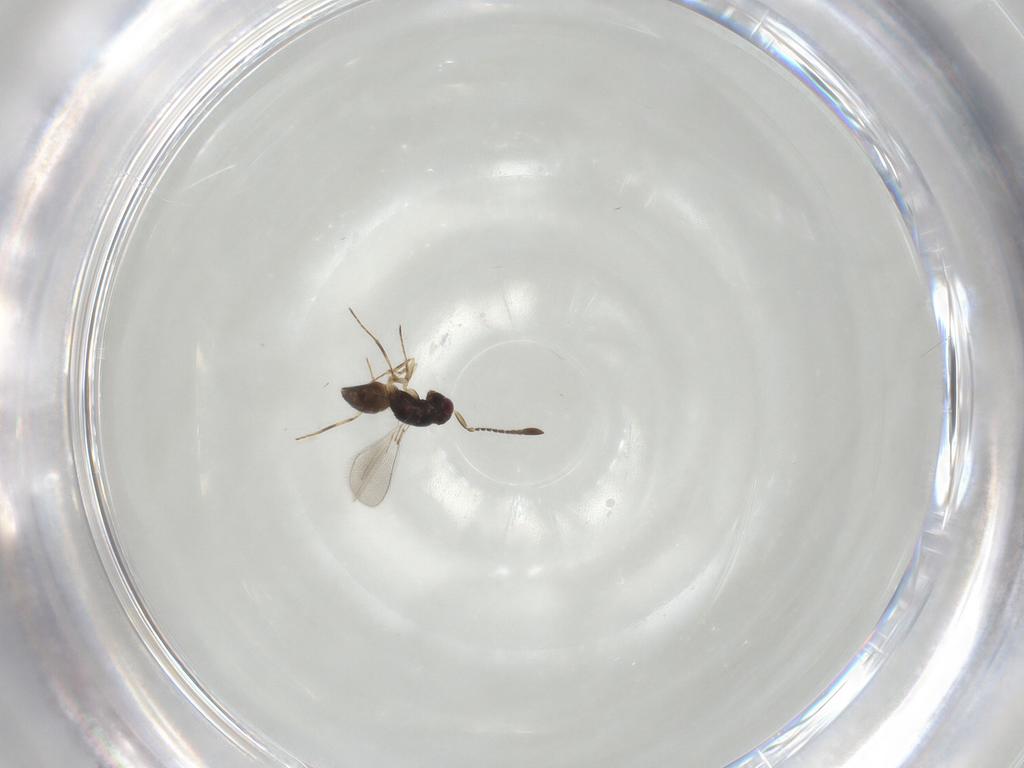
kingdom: Animalia
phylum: Arthropoda
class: Insecta
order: Hymenoptera
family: Mymaridae
